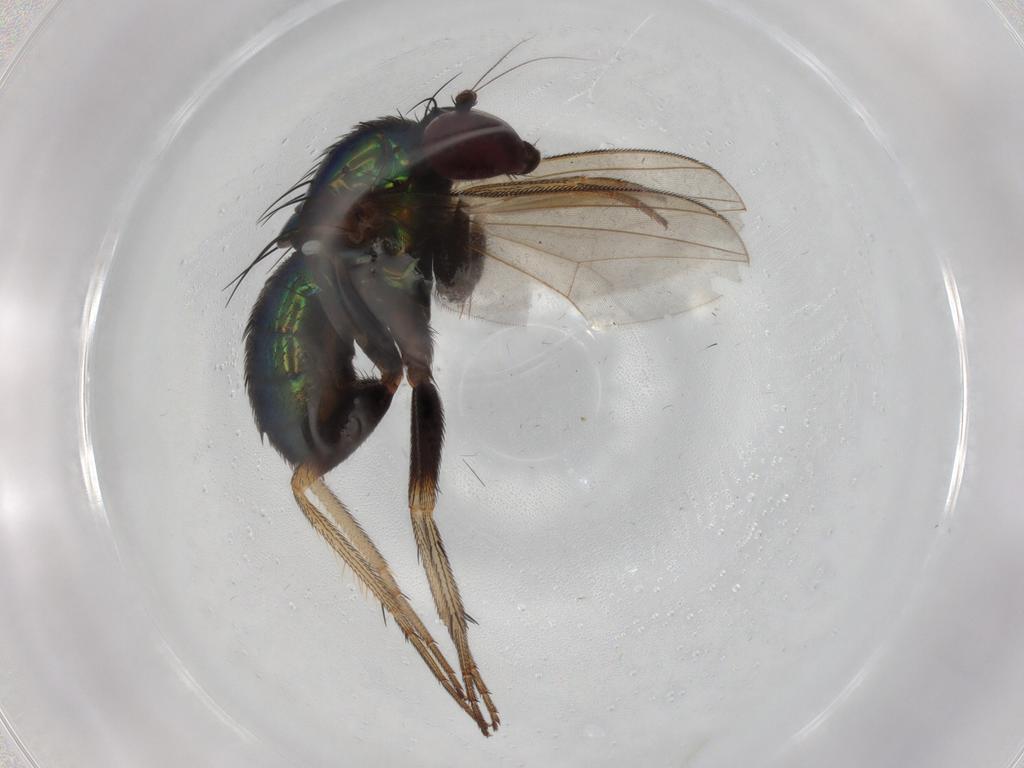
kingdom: Animalia
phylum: Arthropoda
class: Insecta
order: Diptera
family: Dolichopodidae
